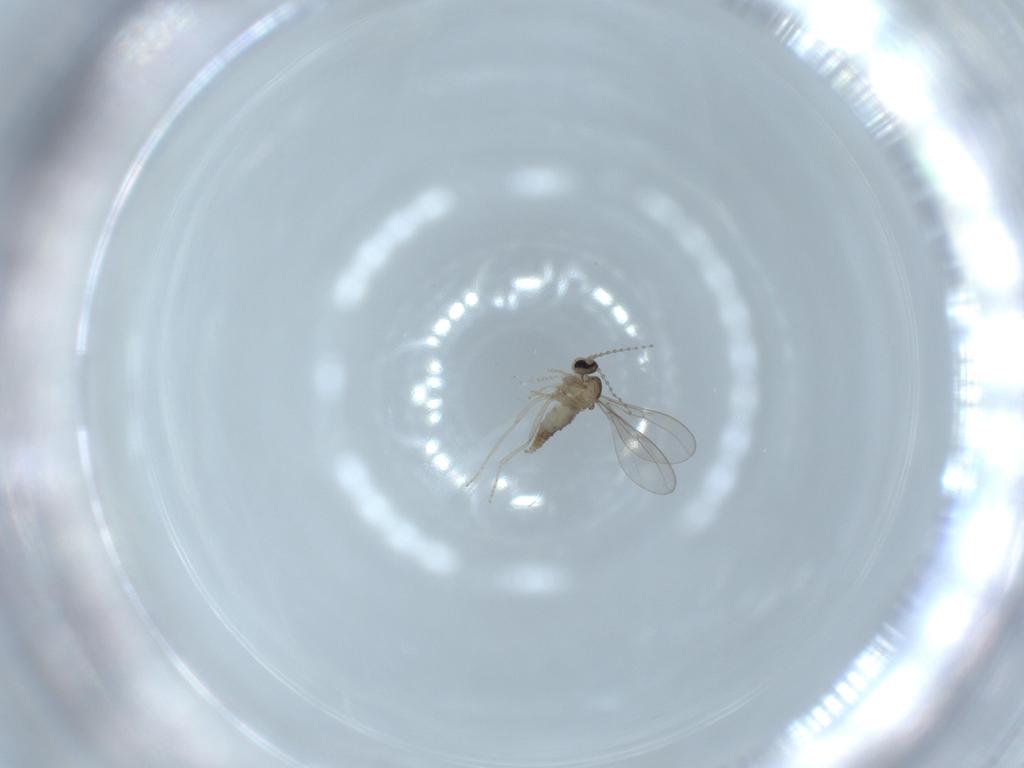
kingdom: Animalia
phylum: Arthropoda
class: Insecta
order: Diptera
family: Cecidomyiidae
